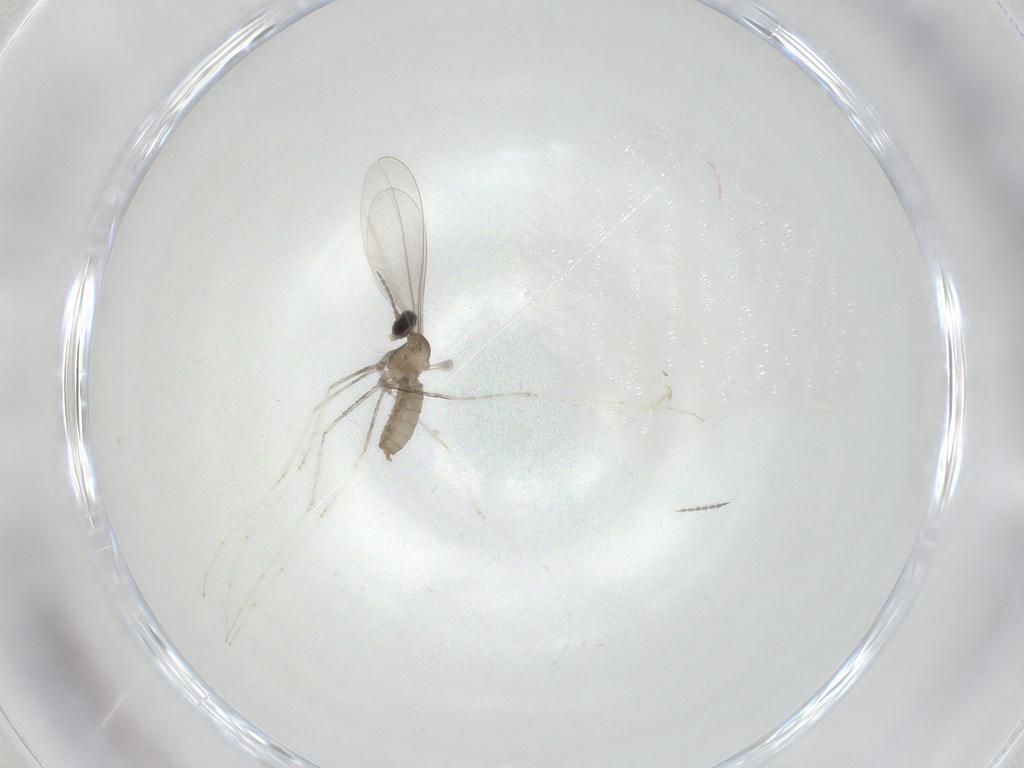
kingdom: Animalia
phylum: Arthropoda
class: Insecta
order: Diptera
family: Cecidomyiidae
